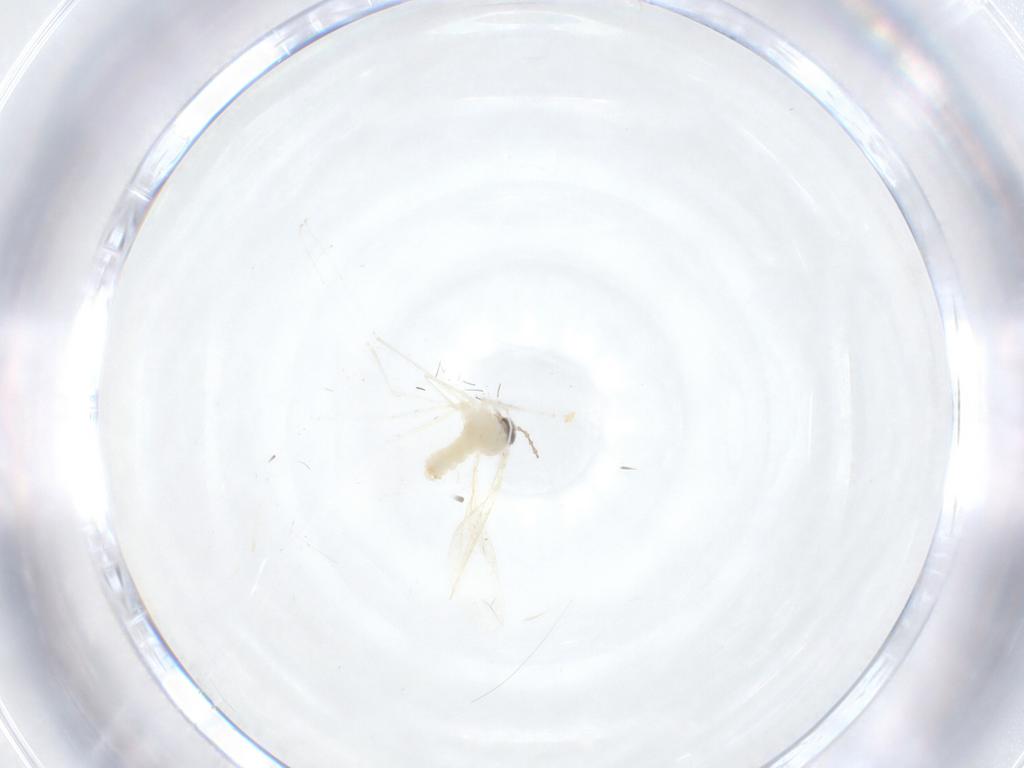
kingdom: Animalia
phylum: Arthropoda
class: Insecta
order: Diptera
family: Cecidomyiidae
